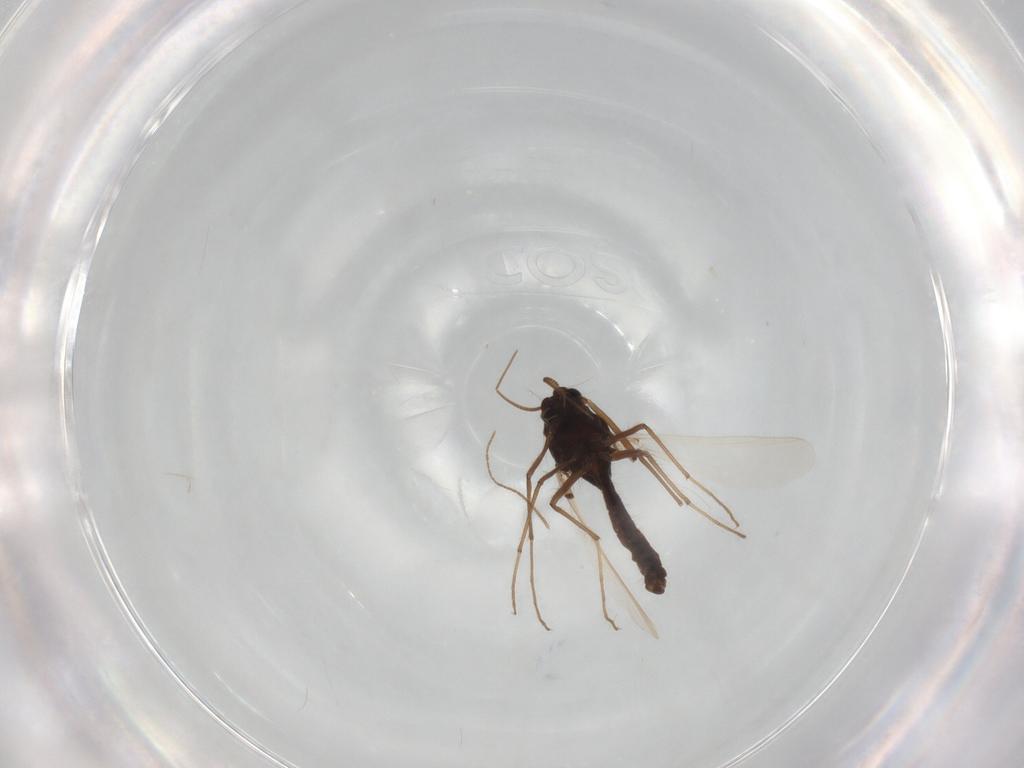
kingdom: Animalia
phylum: Arthropoda
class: Insecta
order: Diptera
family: Chironomidae
